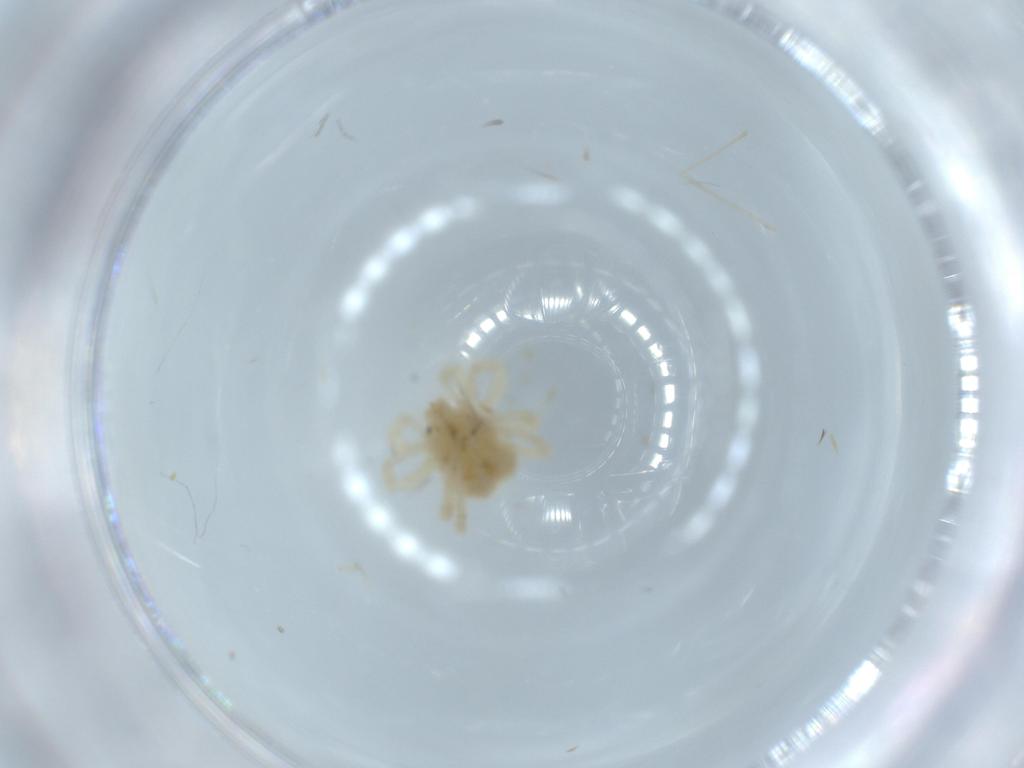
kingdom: Animalia
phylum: Arthropoda
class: Arachnida
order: Trombidiformes
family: Anystidae
